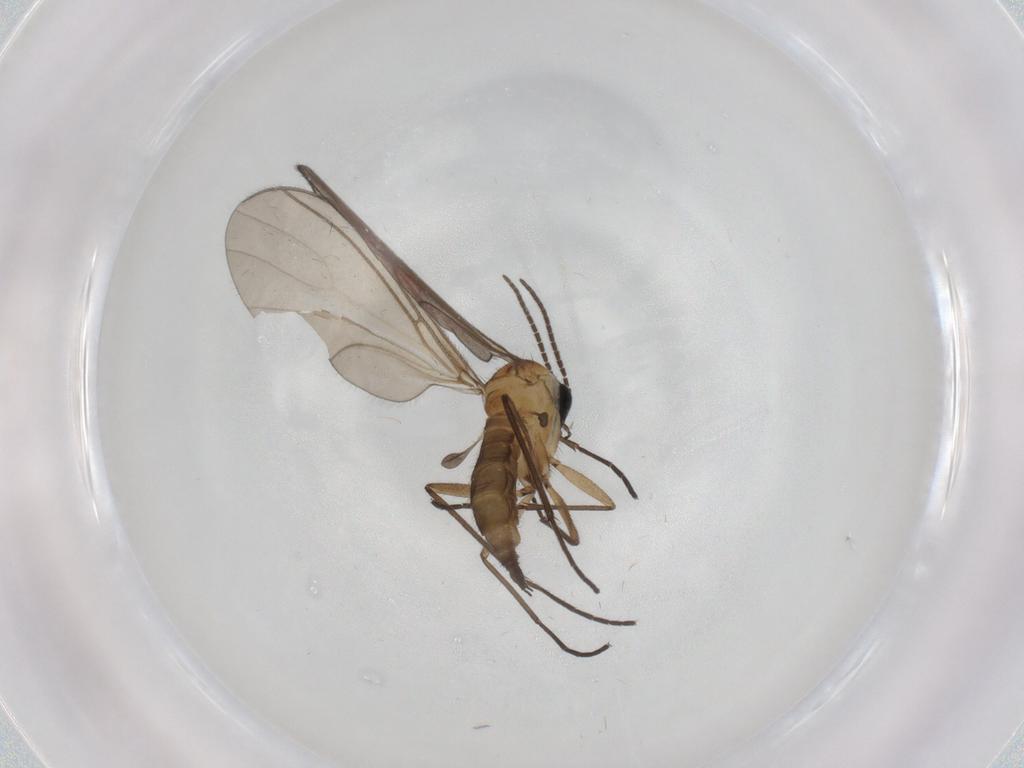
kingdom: Animalia
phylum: Arthropoda
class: Insecta
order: Diptera
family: Sciaridae
